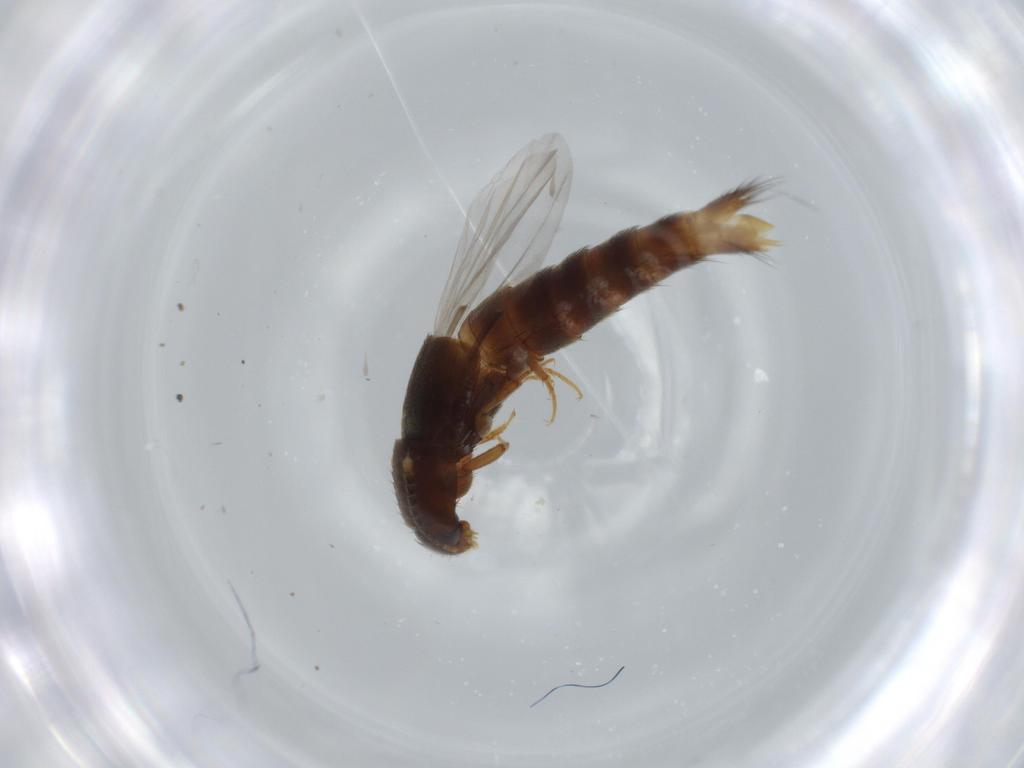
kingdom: Animalia
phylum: Arthropoda
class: Insecta
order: Coleoptera
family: Staphylinidae
